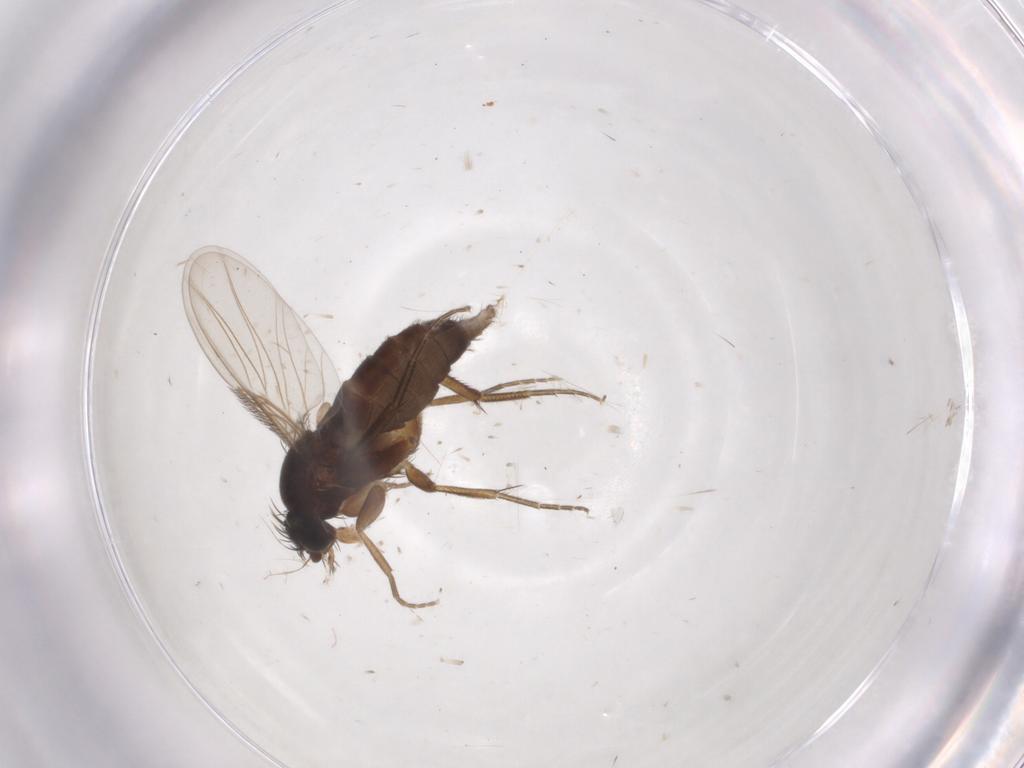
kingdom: Animalia
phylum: Arthropoda
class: Insecta
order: Diptera
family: Phoridae
